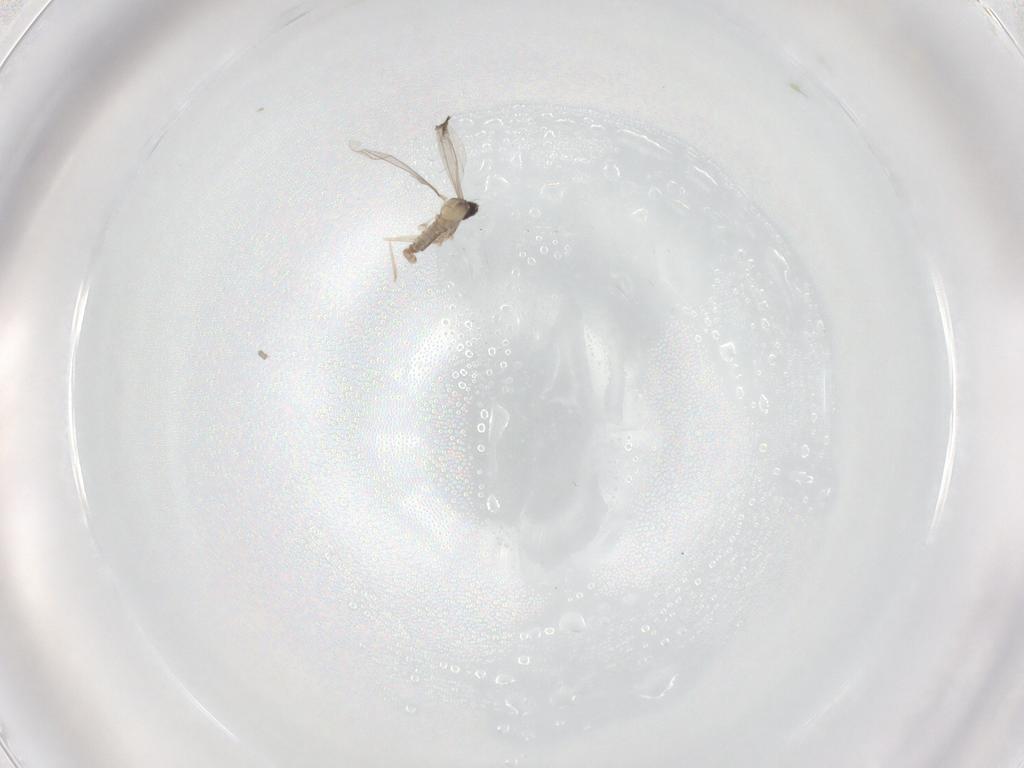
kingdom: Animalia
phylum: Arthropoda
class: Insecta
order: Diptera
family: Cecidomyiidae
